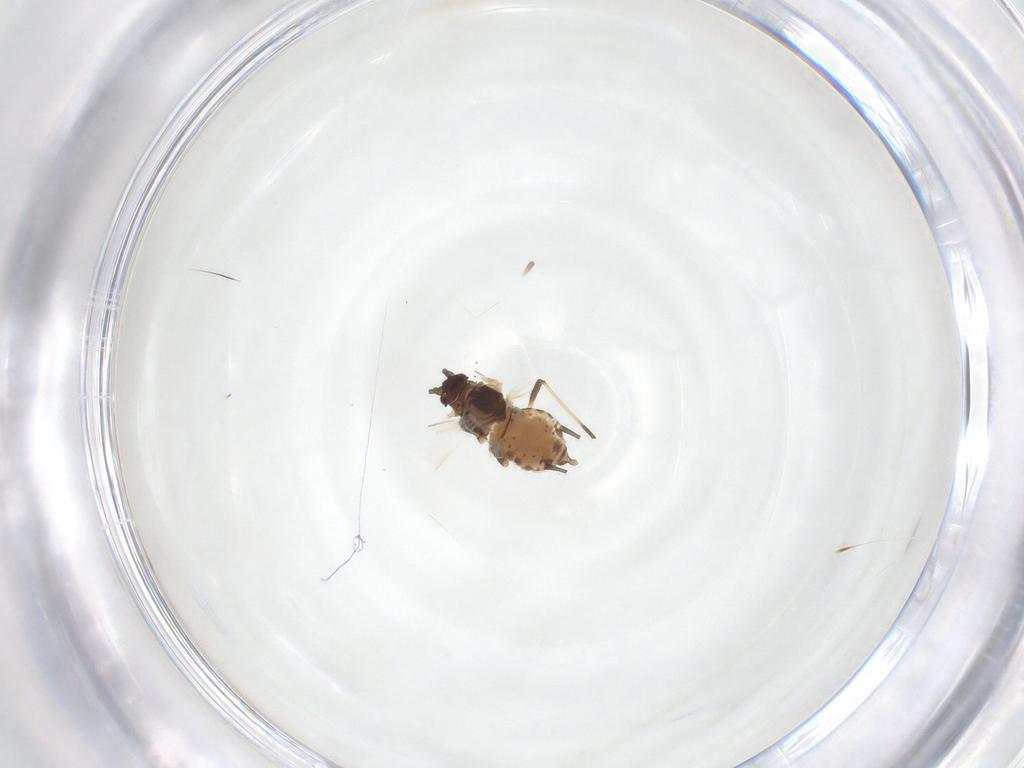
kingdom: Animalia
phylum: Arthropoda
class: Insecta
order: Hemiptera
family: Aphididae
